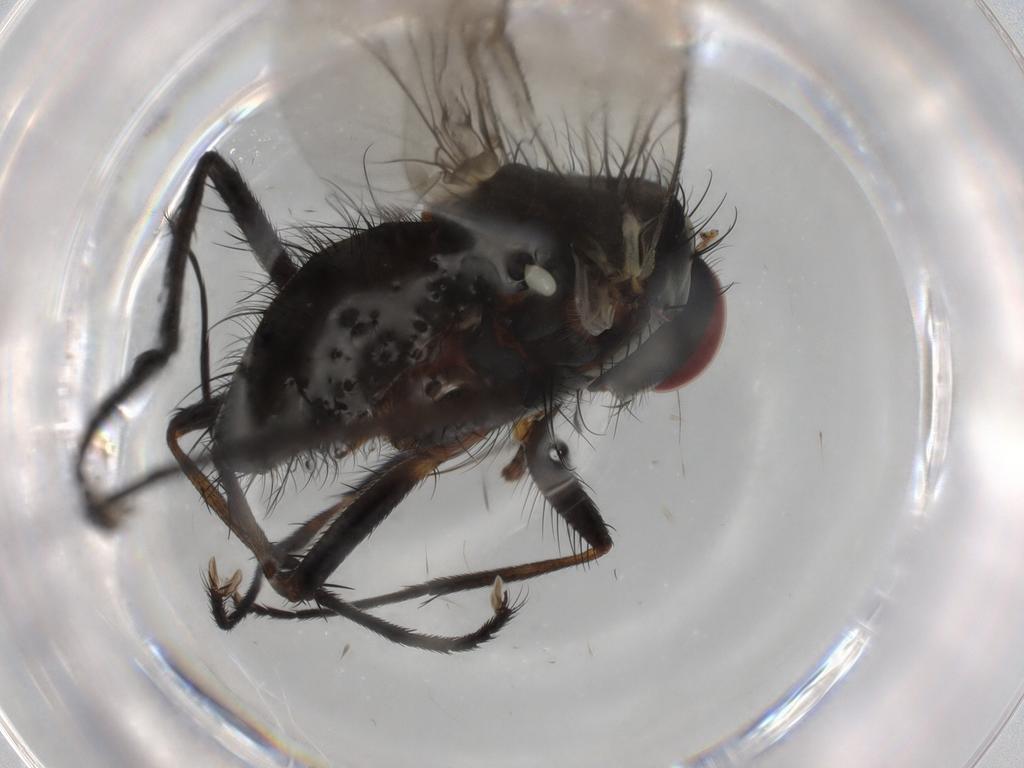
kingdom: Animalia
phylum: Arthropoda
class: Insecta
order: Diptera
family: Anthomyiidae
